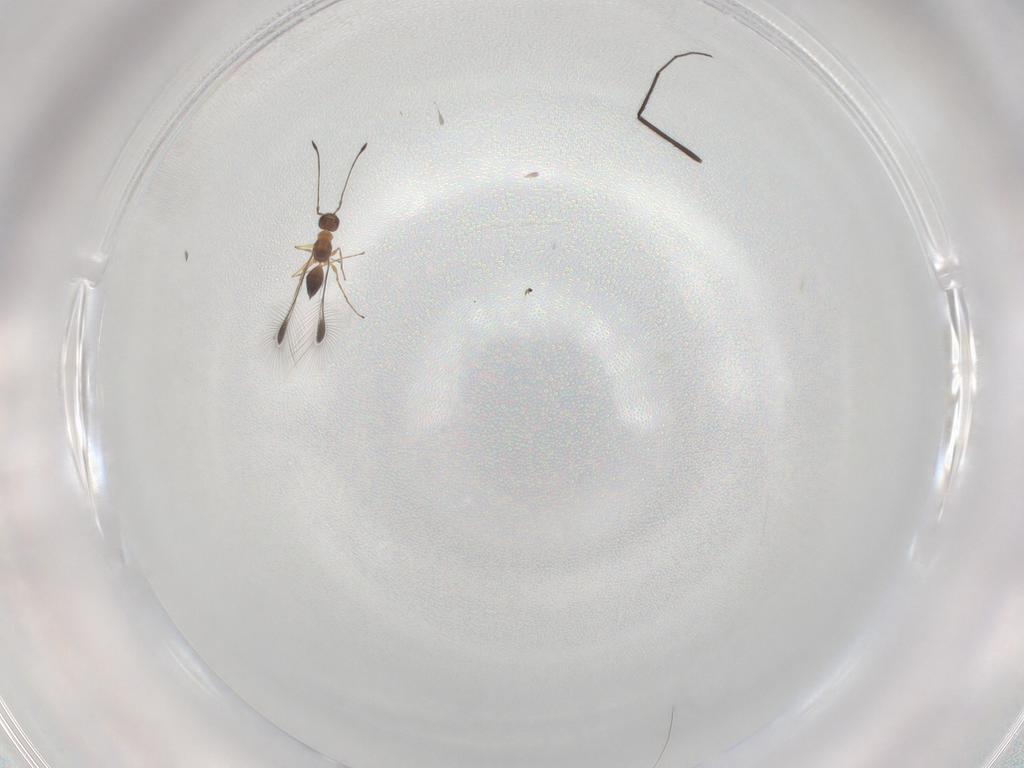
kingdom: Animalia
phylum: Arthropoda
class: Insecta
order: Hymenoptera
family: Mymaridae
